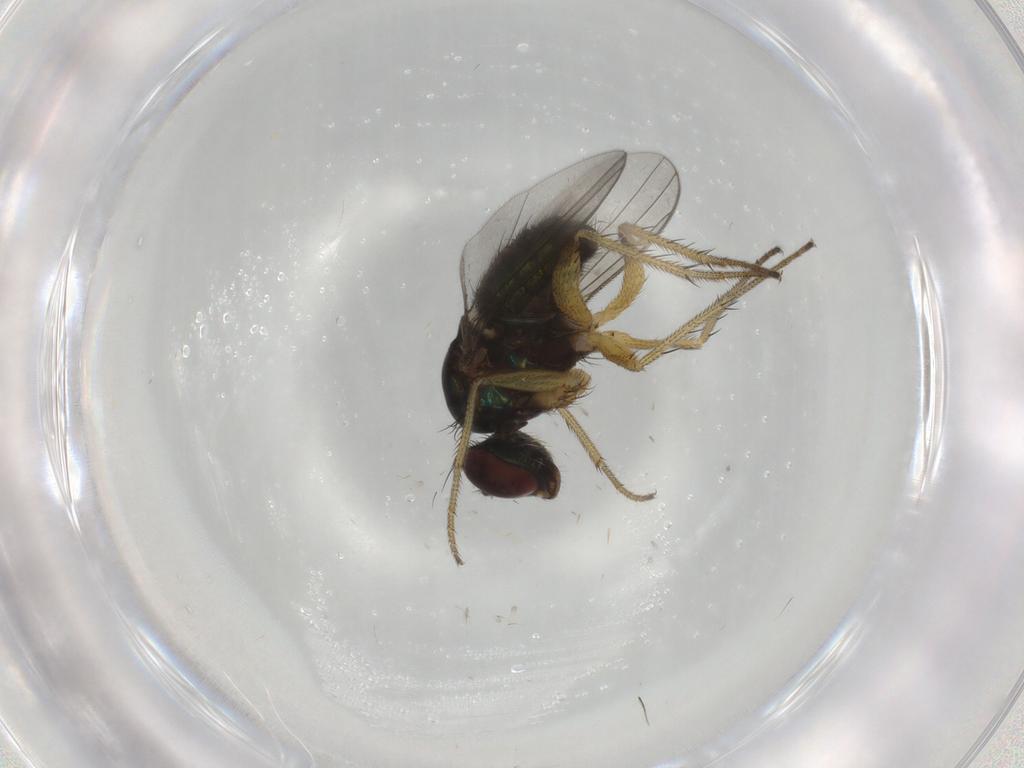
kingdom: Animalia
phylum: Arthropoda
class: Insecta
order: Diptera
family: Dolichopodidae
